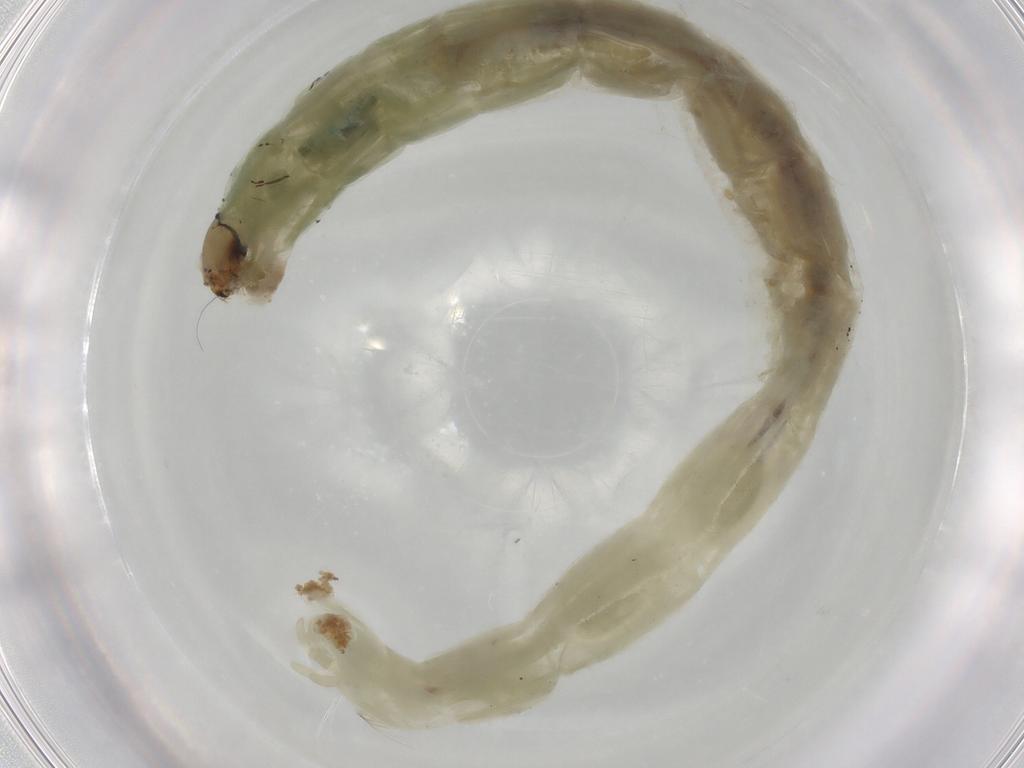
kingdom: Animalia
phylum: Arthropoda
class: Insecta
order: Diptera
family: Chironomidae
